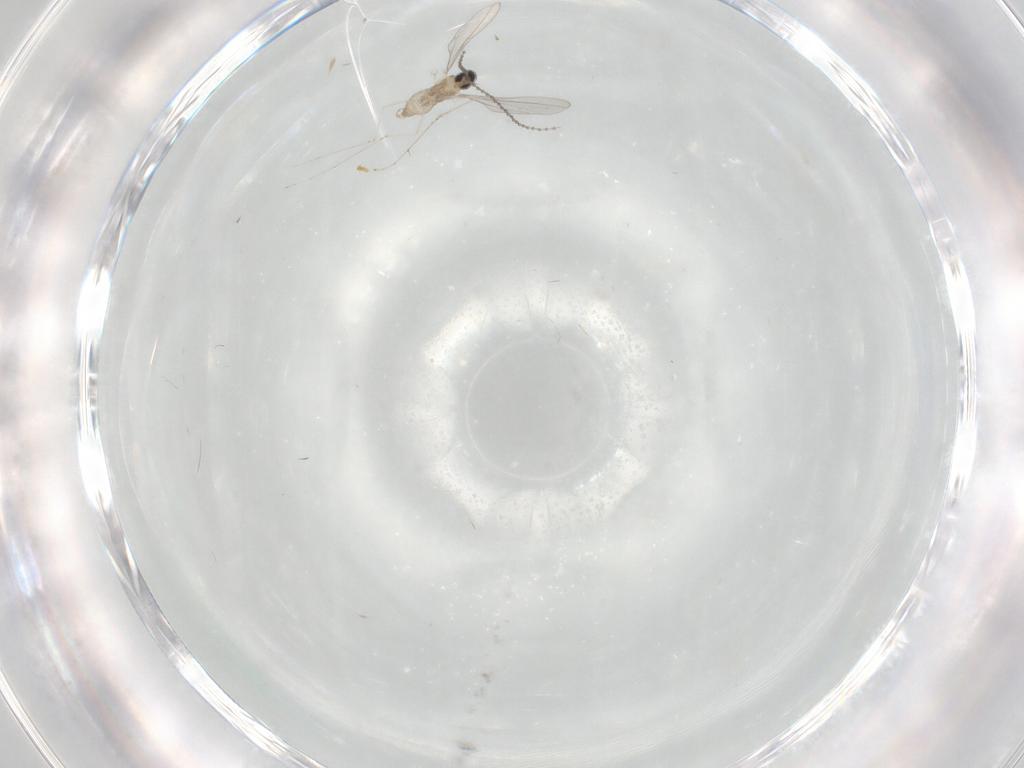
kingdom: Animalia
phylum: Arthropoda
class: Insecta
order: Diptera
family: Cecidomyiidae
